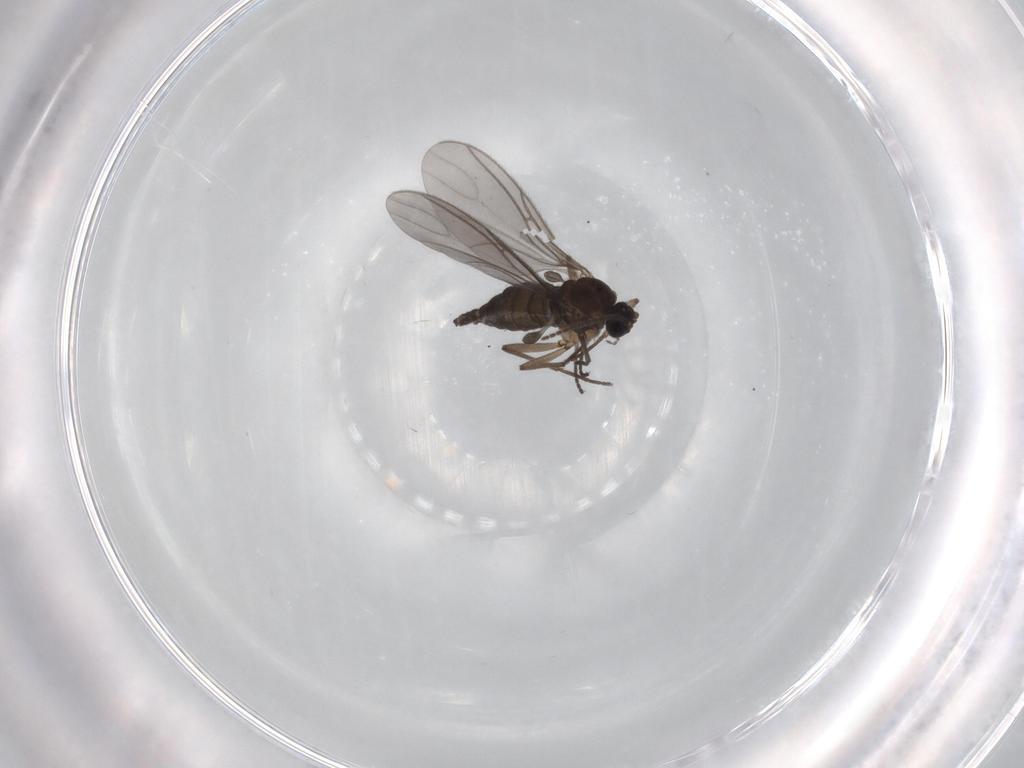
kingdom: Animalia
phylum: Arthropoda
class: Insecta
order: Diptera
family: Sciaridae
